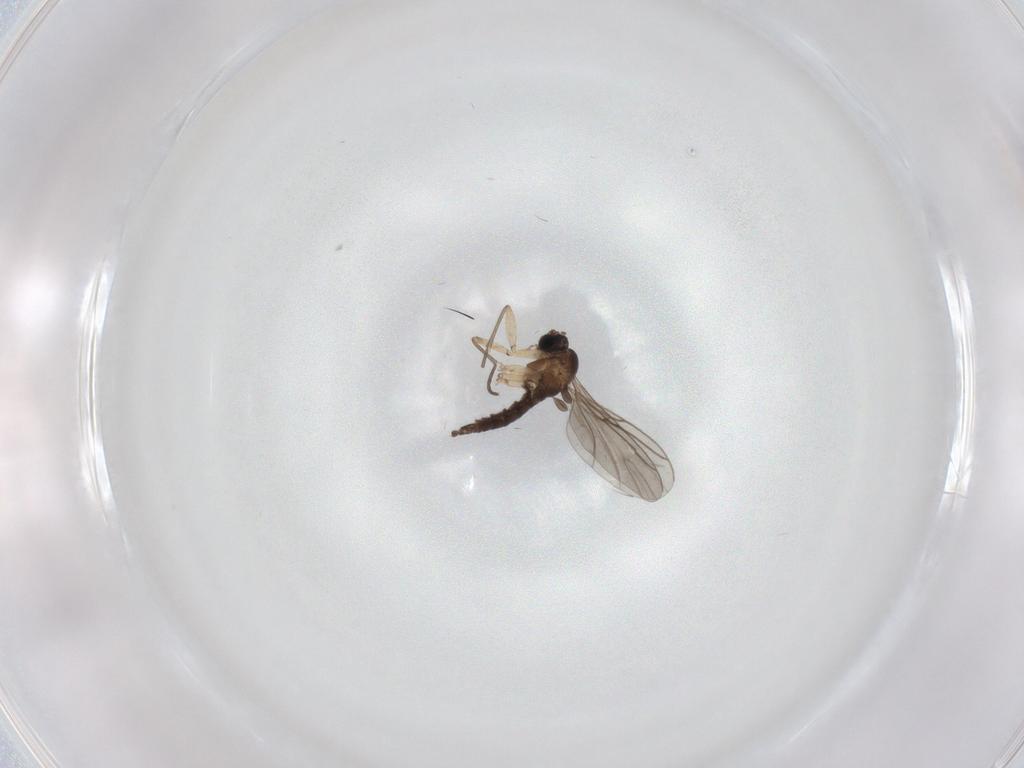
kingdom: Animalia
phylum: Arthropoda
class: Insecta
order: Diptera
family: Sciaridae
